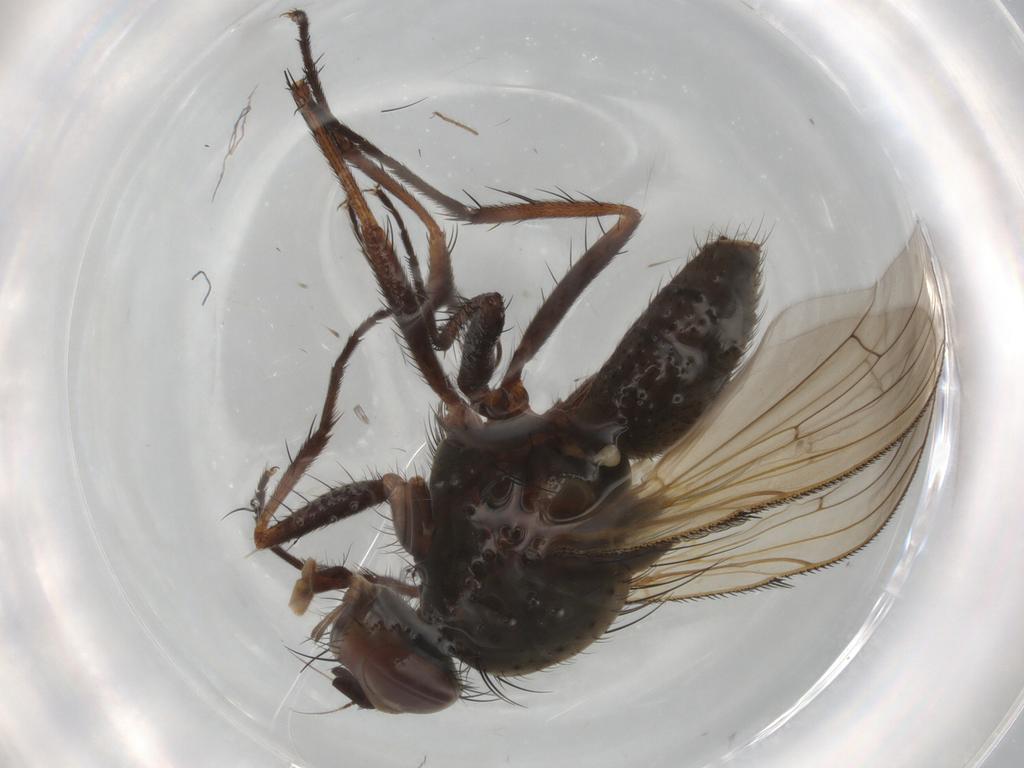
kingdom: Animalia
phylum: Arthropoda
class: Insecta
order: Diptera
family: Anthomyiidae
